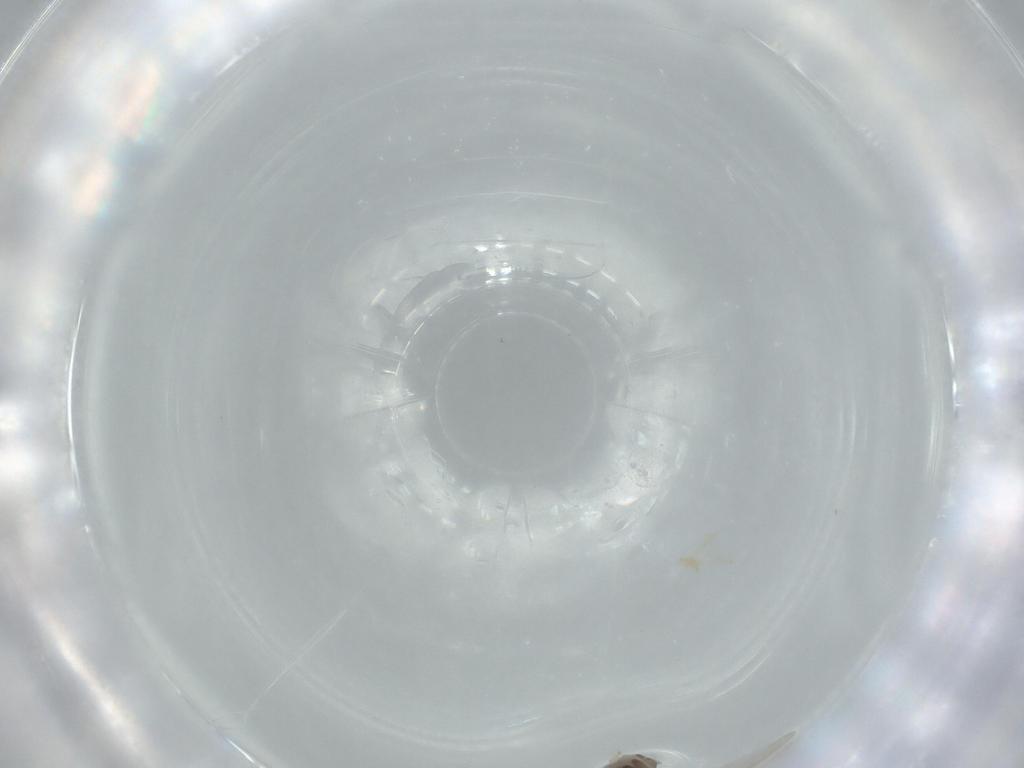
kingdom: Animalia
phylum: Arthropoda
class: Insecta
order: Diptera
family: Cecidomyiidae
